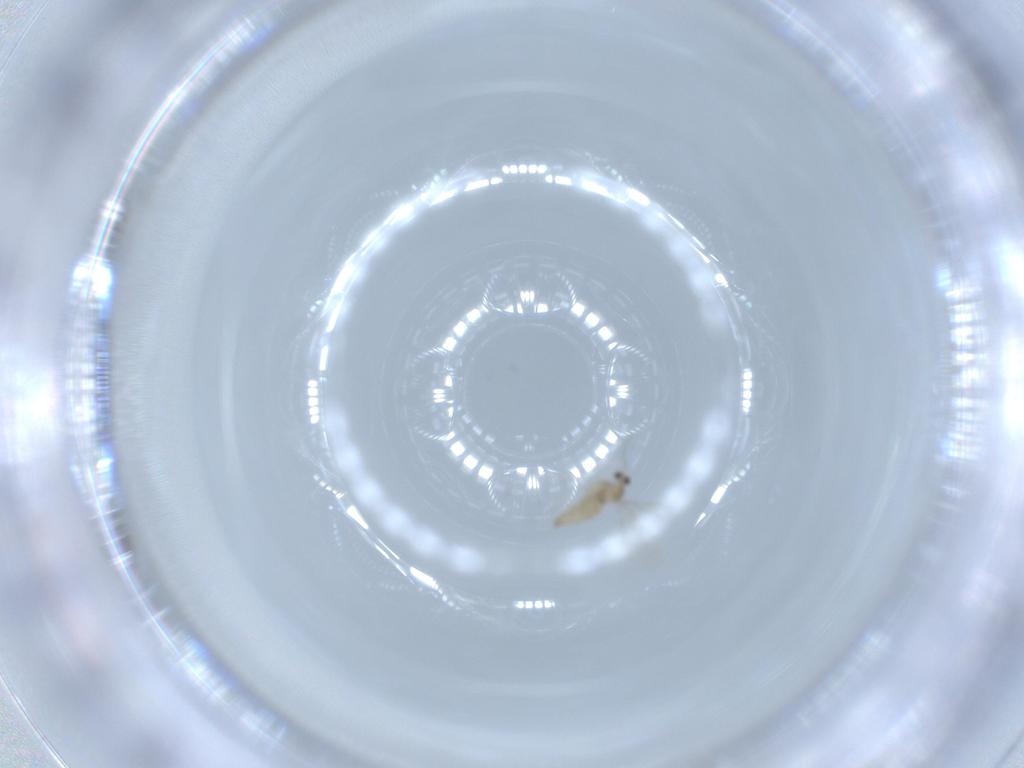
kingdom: Animalia
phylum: Arthropoda
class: Insecta
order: Diptera
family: Cecidomyiidae
